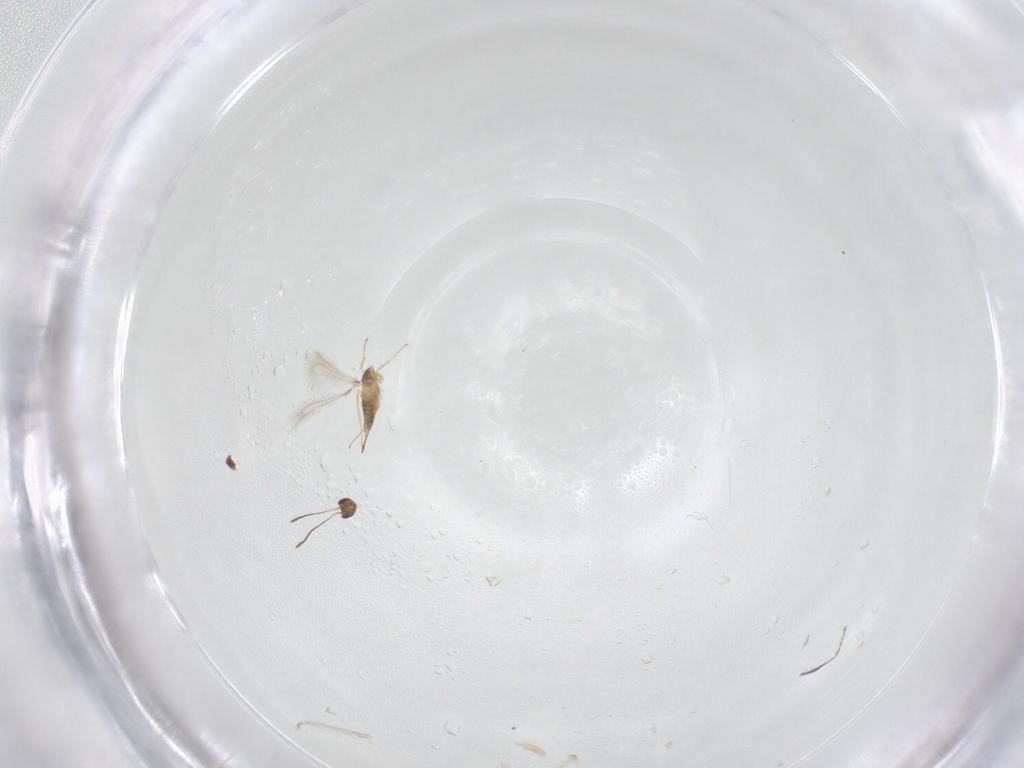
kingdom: Animalia
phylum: Arthropoda
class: Insecta
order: Hymenoptera
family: Mymaridae
